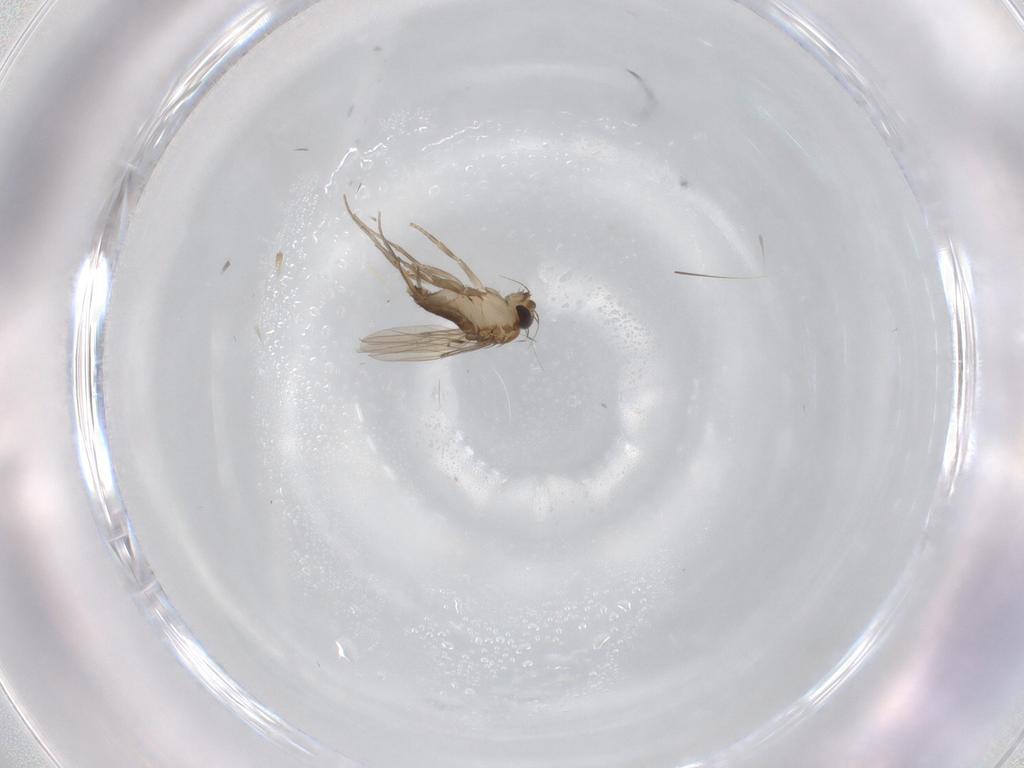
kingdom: Animalia
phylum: Arthropoda
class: Insecta
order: Diptera
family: Phoridae
